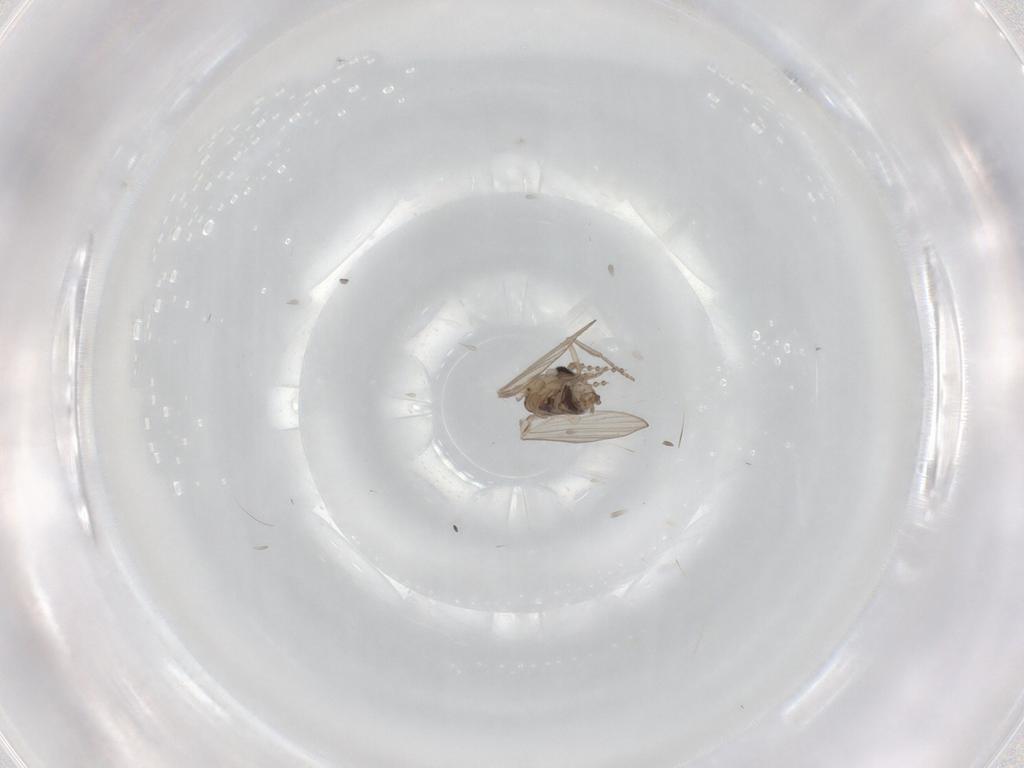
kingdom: Animalia
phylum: Arthropoda
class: Insecta
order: Diptera
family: Psychodidae
